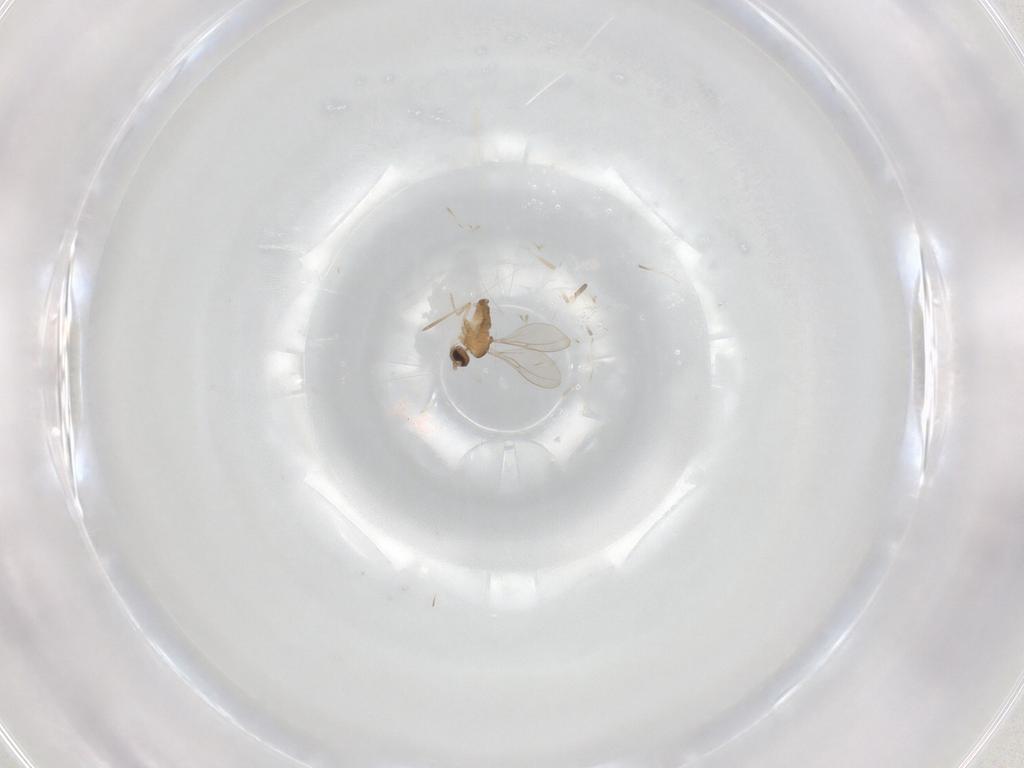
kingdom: Animalia
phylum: Arthropoda
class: Insecta
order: Diptera
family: Cecidomyiidae
